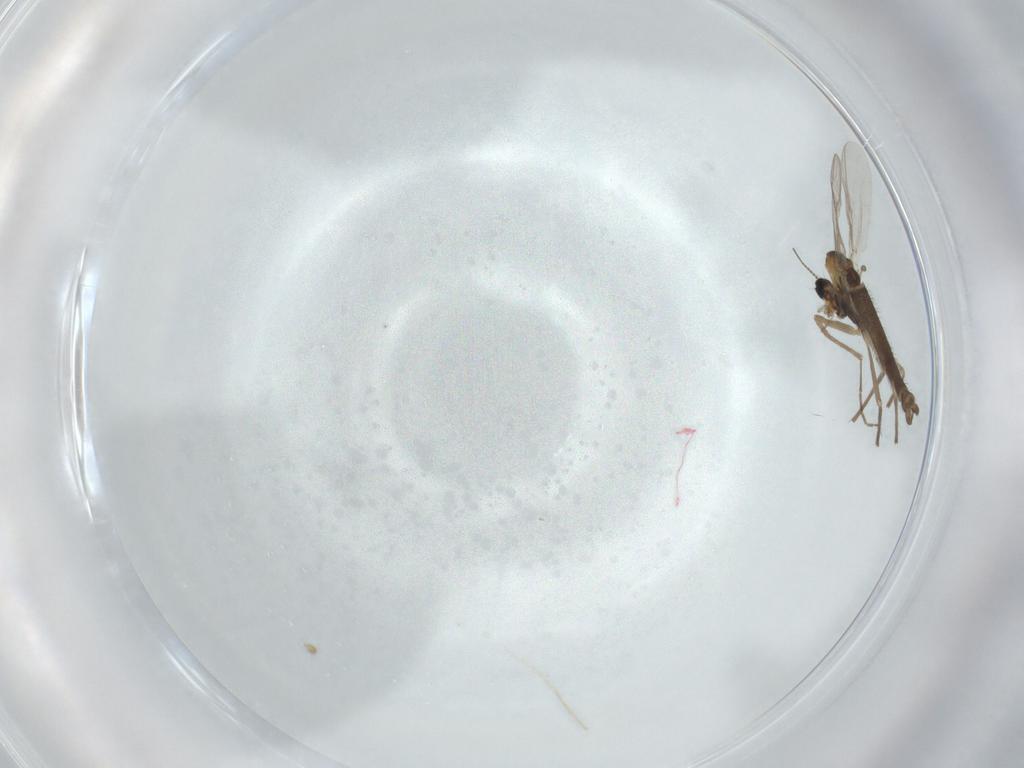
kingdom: Animalia
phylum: Arthropoda
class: Insecta
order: Diptera
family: Chironomidae
